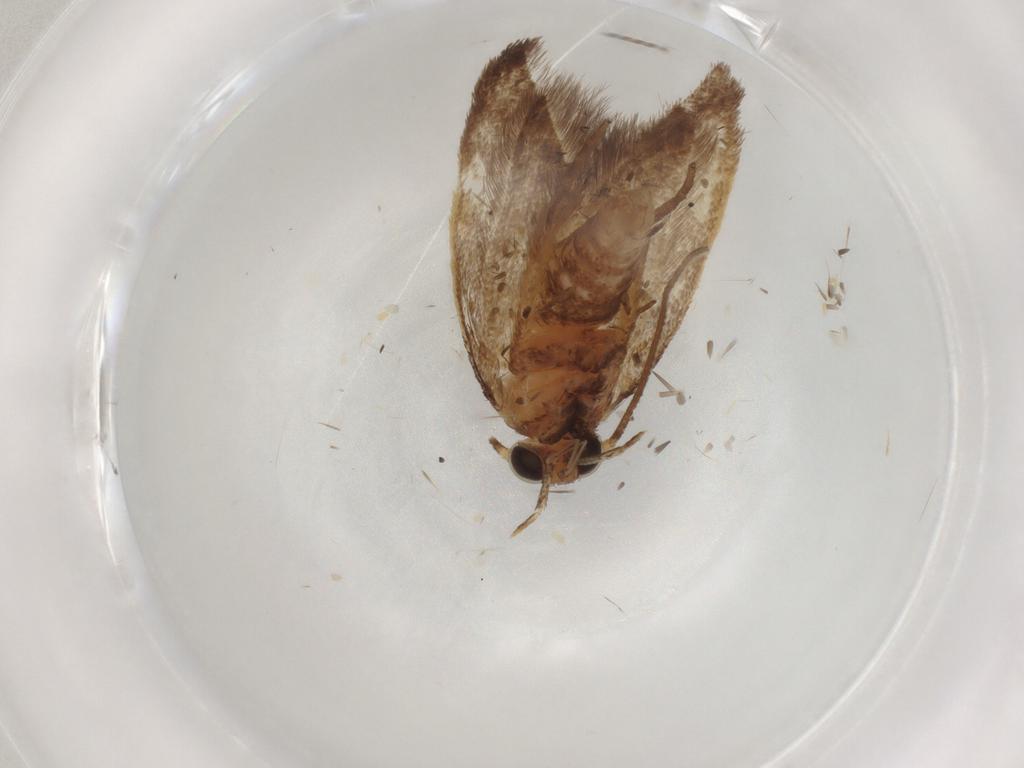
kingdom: Animalia
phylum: Arthropoda
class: Insecta
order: Lepidoptera
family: Oecophoridae
